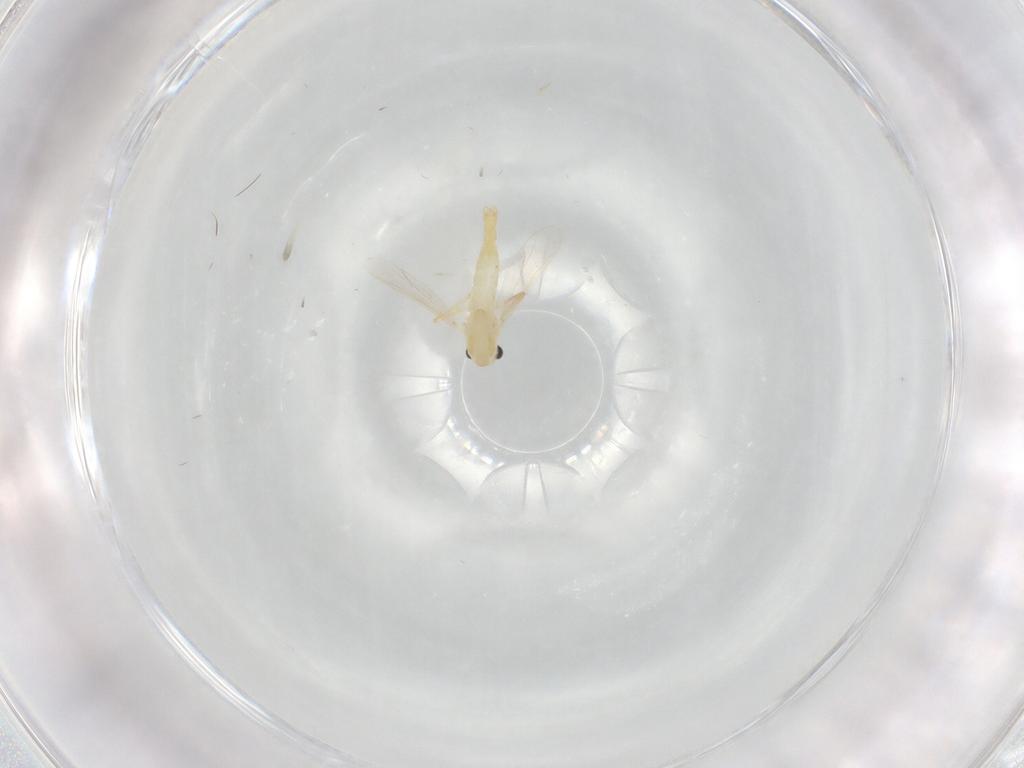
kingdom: Animalia
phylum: Arthropoda
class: Insecta
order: Diptera
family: Chironomidae
